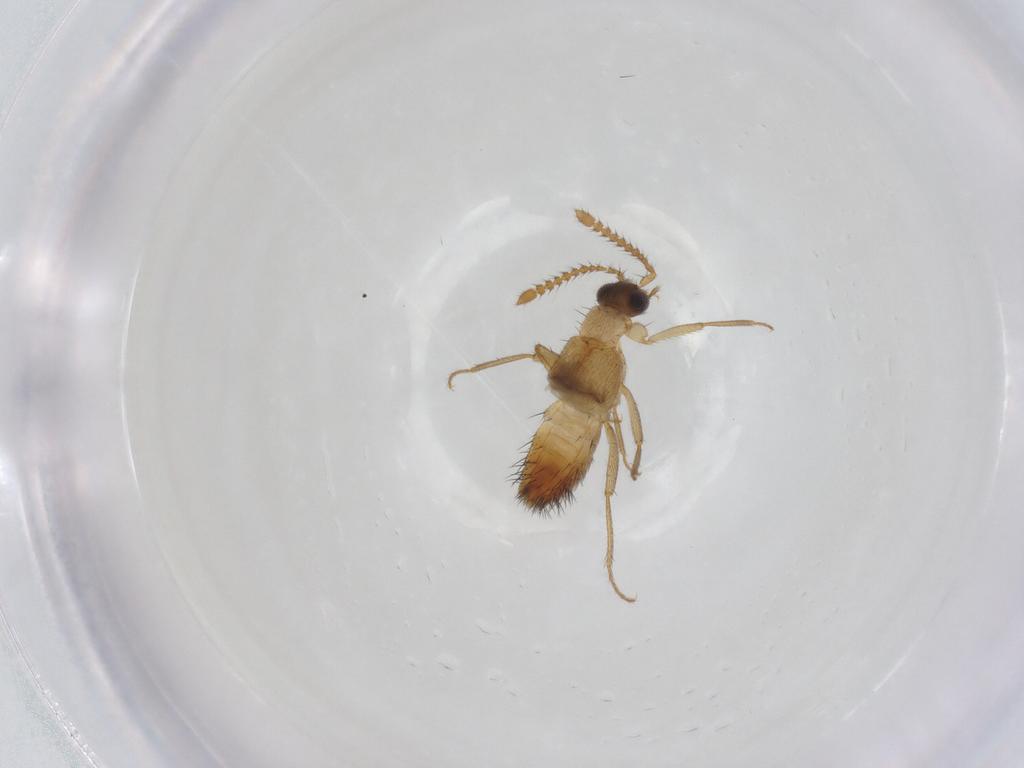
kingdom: Animalia
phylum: Arthropoda
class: Insecta
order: Coleoptera
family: Staphylinidae
